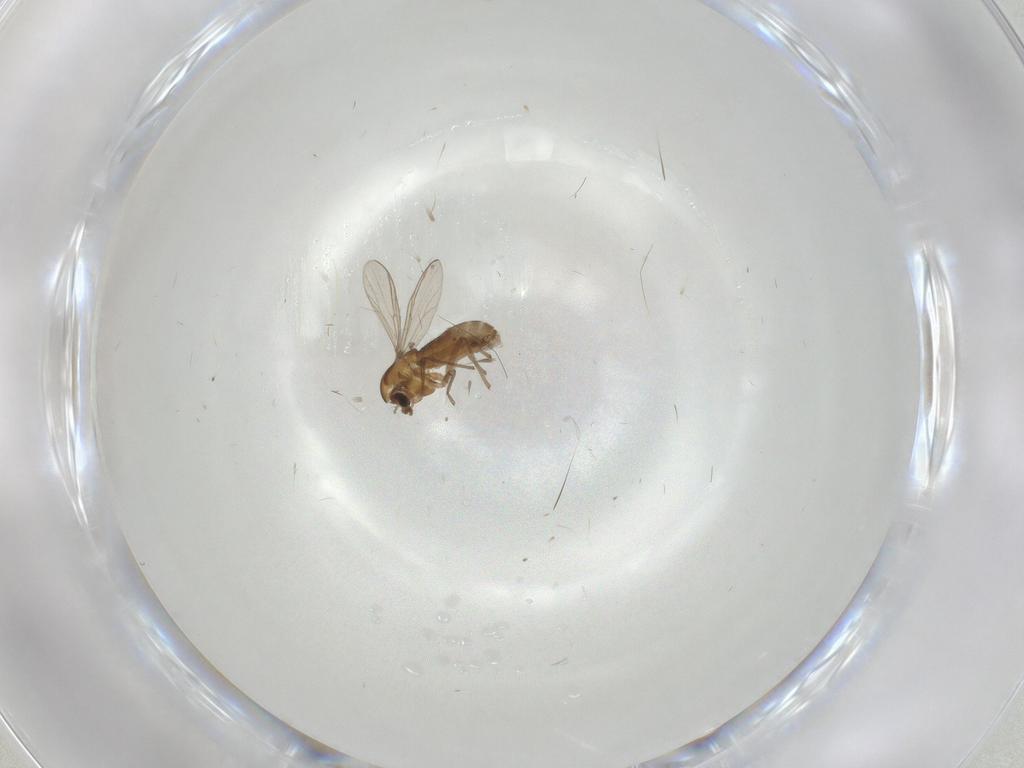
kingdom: Animalia
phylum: Arthropoda
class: Insecta
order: Diptera
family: Chironomidae
